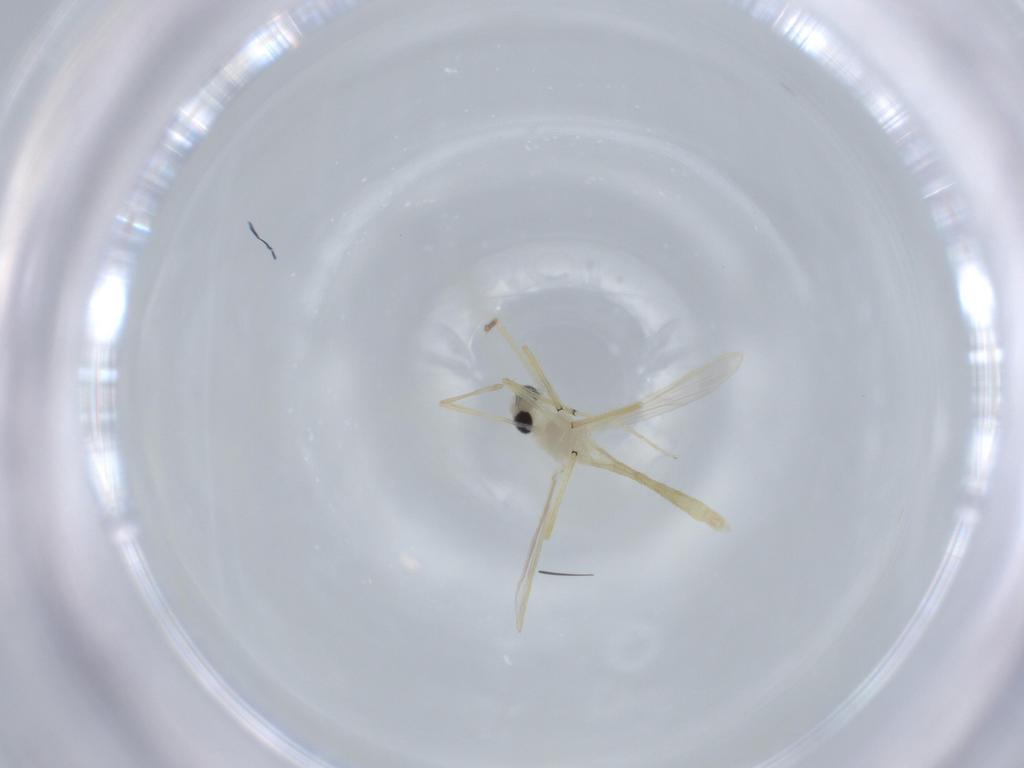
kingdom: Animalia
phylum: Arthropoda
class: Insecta
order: Diptera
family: Chironomidae
